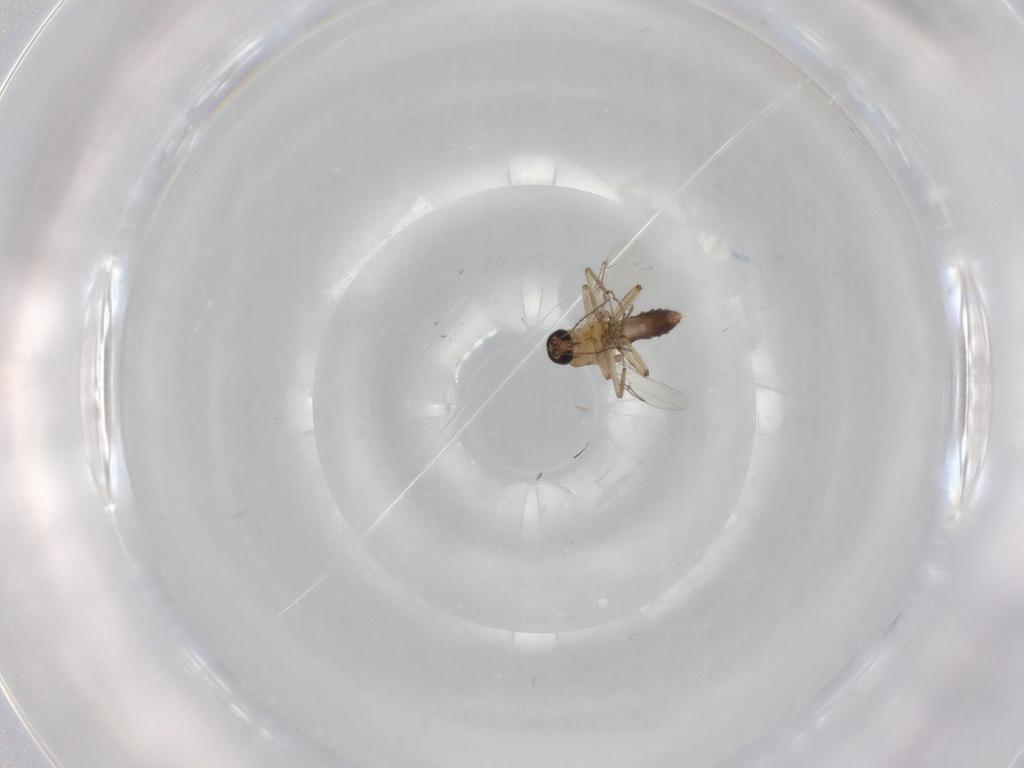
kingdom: Animalia
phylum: Arthropoda
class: Insecta
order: Diptera
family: Ceratopogonidae
